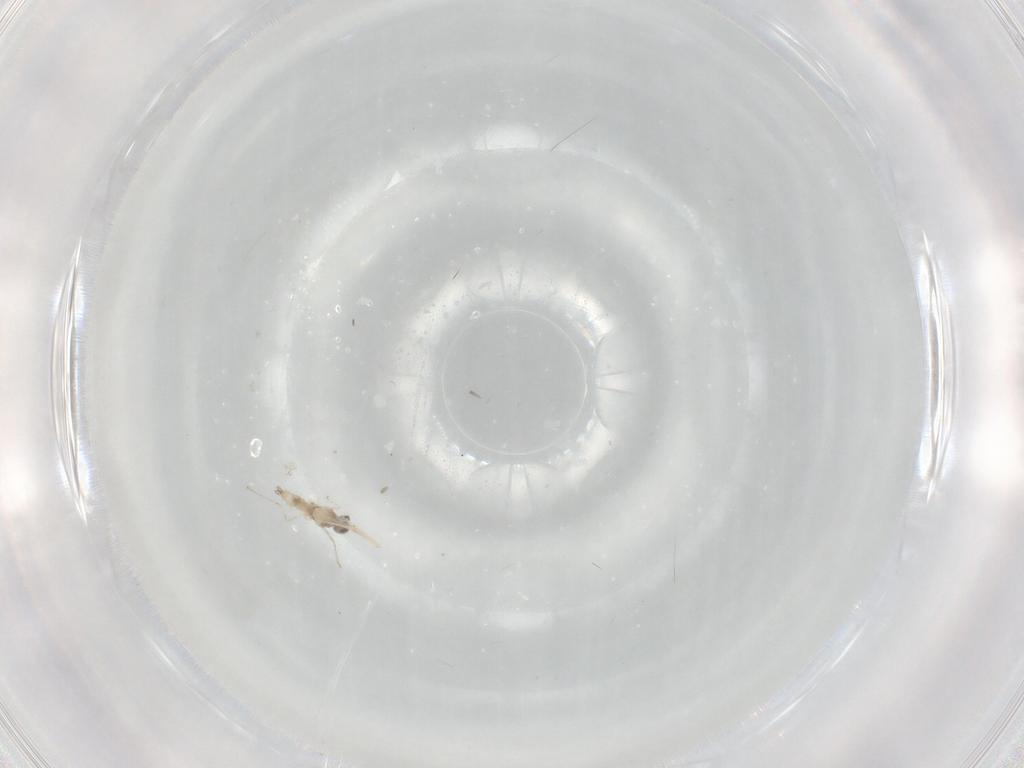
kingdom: Animalia
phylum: Arthropoda
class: Insecta
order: Diptera
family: Cecidomyiidae
